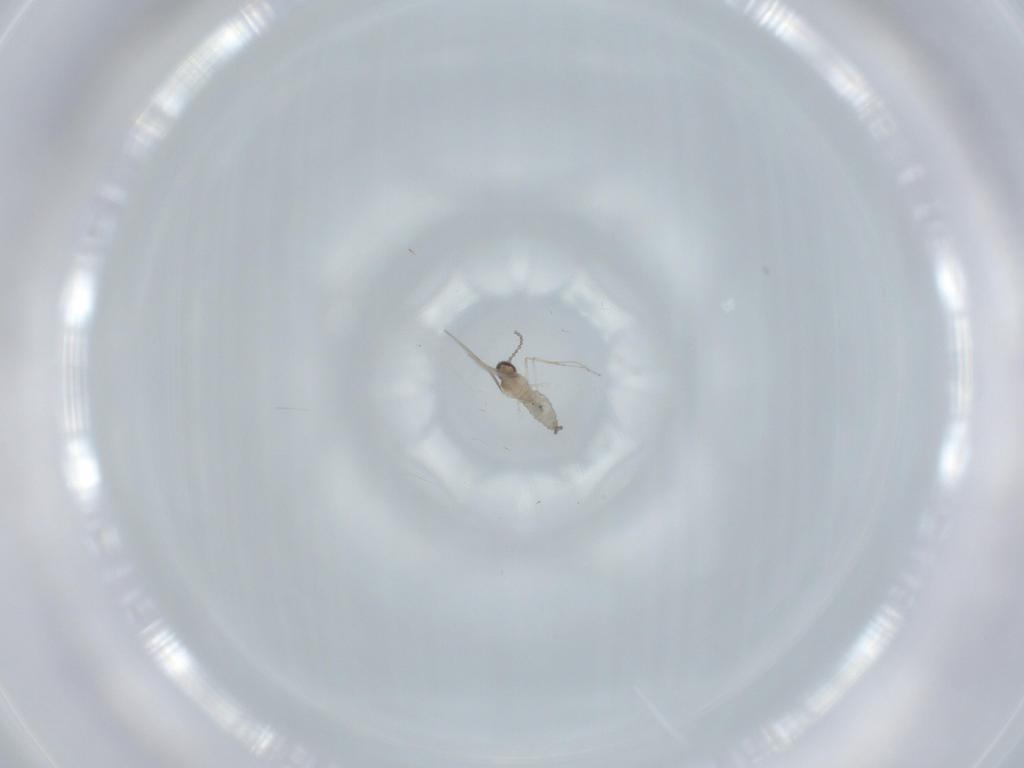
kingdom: Animalia
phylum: Arthropoda
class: Insecta
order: Diptera
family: Cecidomyiidae
